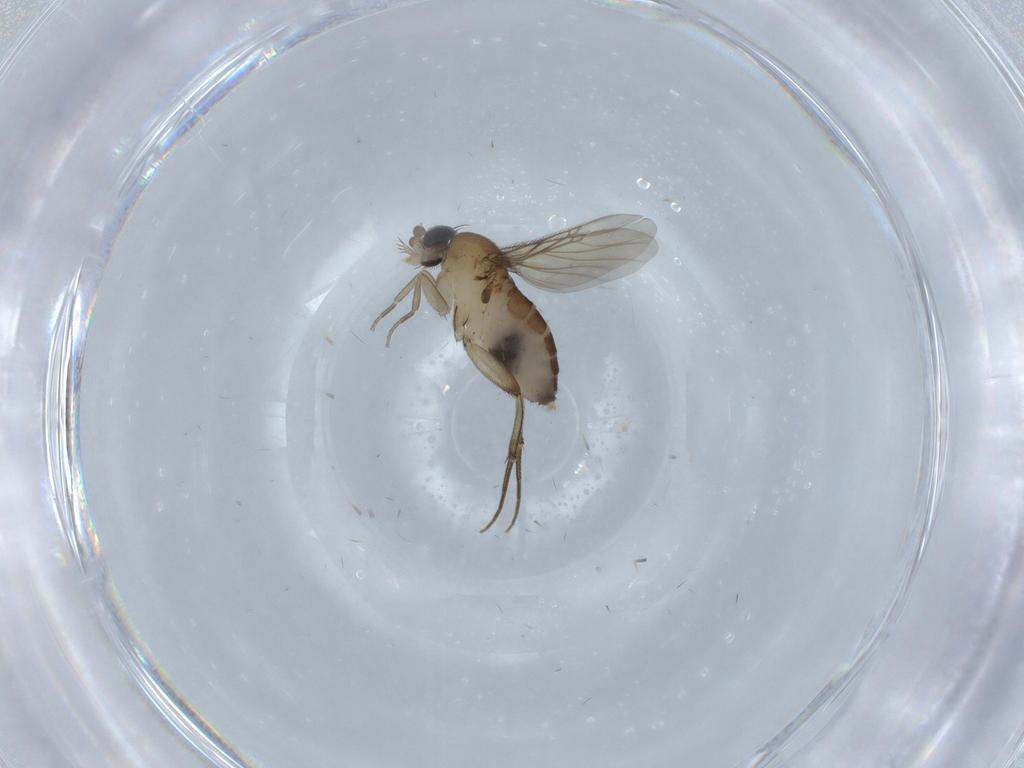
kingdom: Animalia
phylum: Arthropoda
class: Insecta
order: Diptera
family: Phoridae
